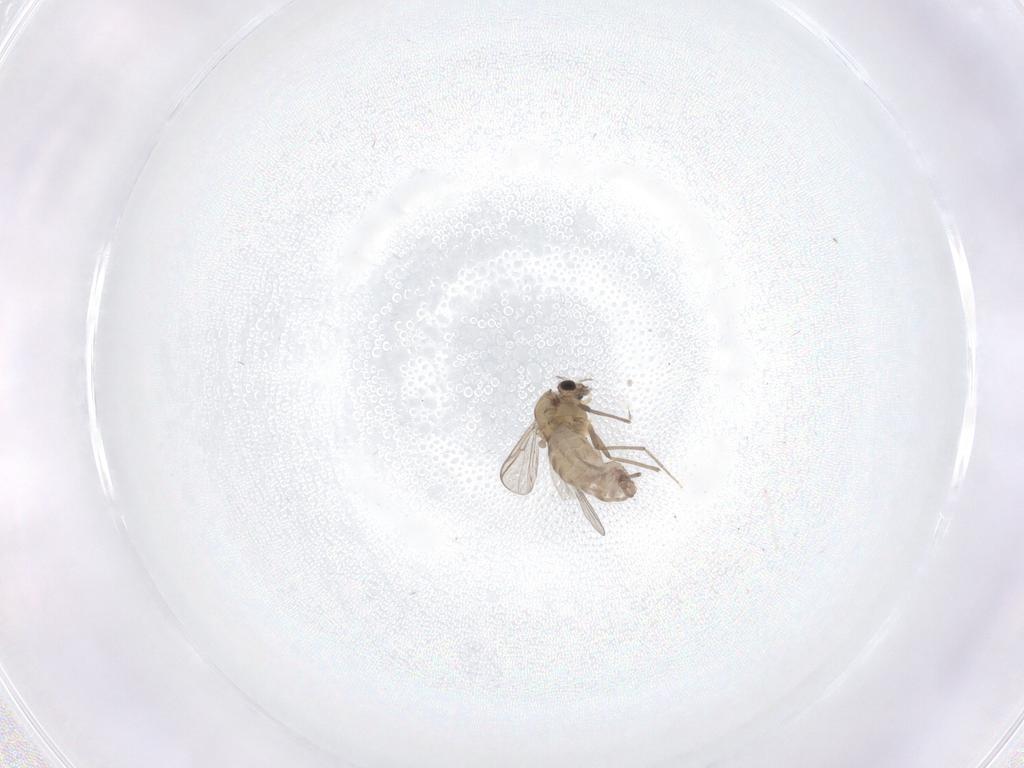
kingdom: Animalia
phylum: Arthropoda
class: Insecta
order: Diptera
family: Chironomidae
